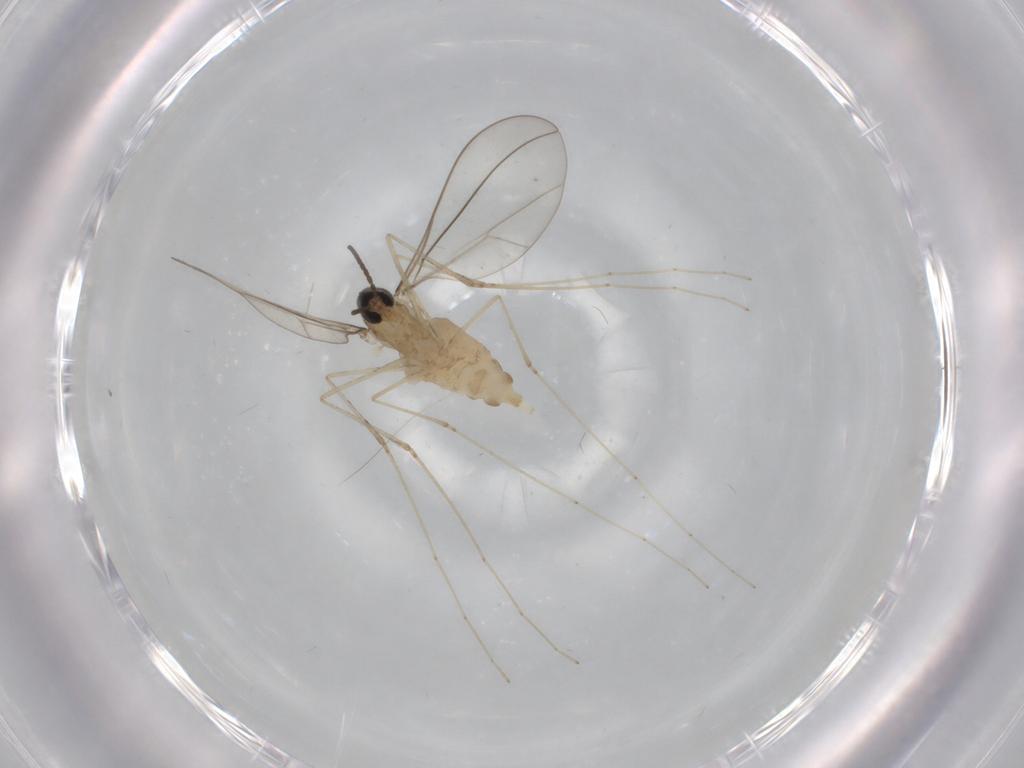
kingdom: Animalia
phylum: Arthropoda
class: Insecta
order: Diptera
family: Cecidomyiidae
